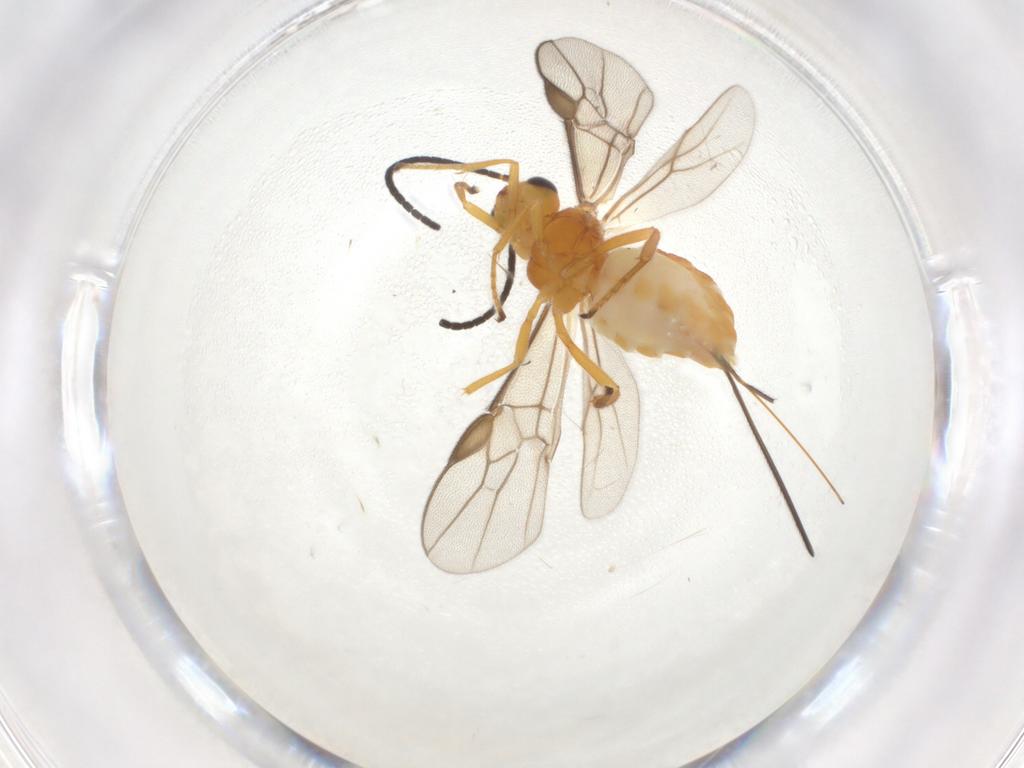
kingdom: Animalia
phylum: Arthropoda
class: Insecta
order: Hymenoptera
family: Braconidae
